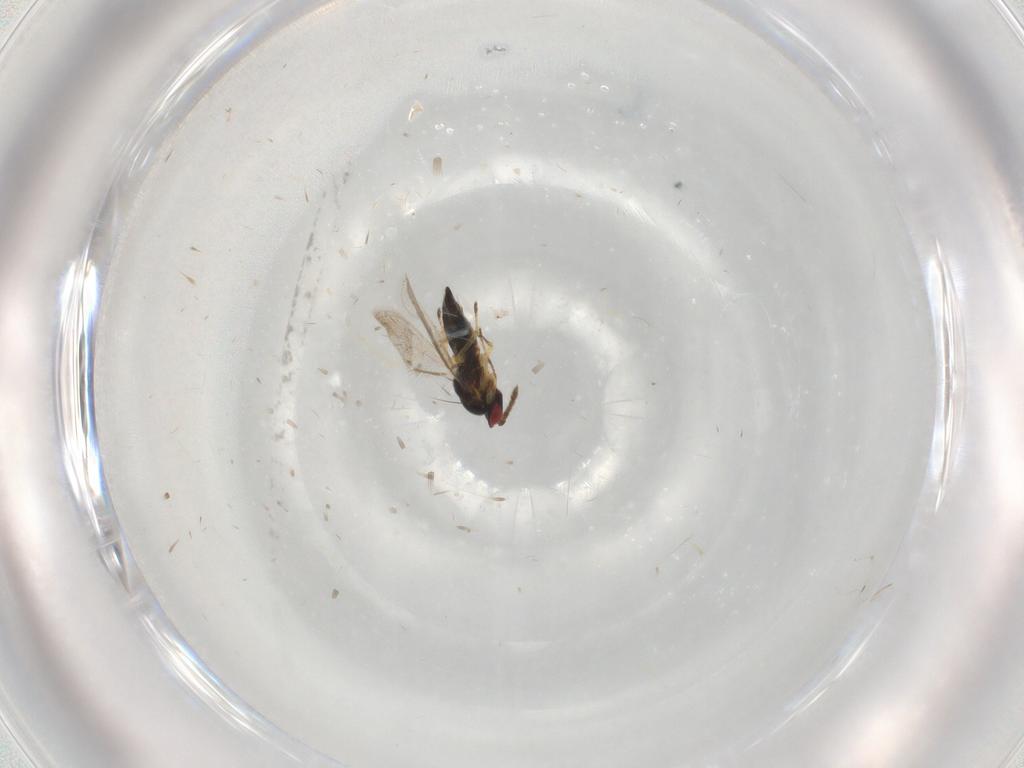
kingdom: Animalia
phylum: Arthropoda
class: Insecta
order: Hymenoptera
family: Eulophidae
